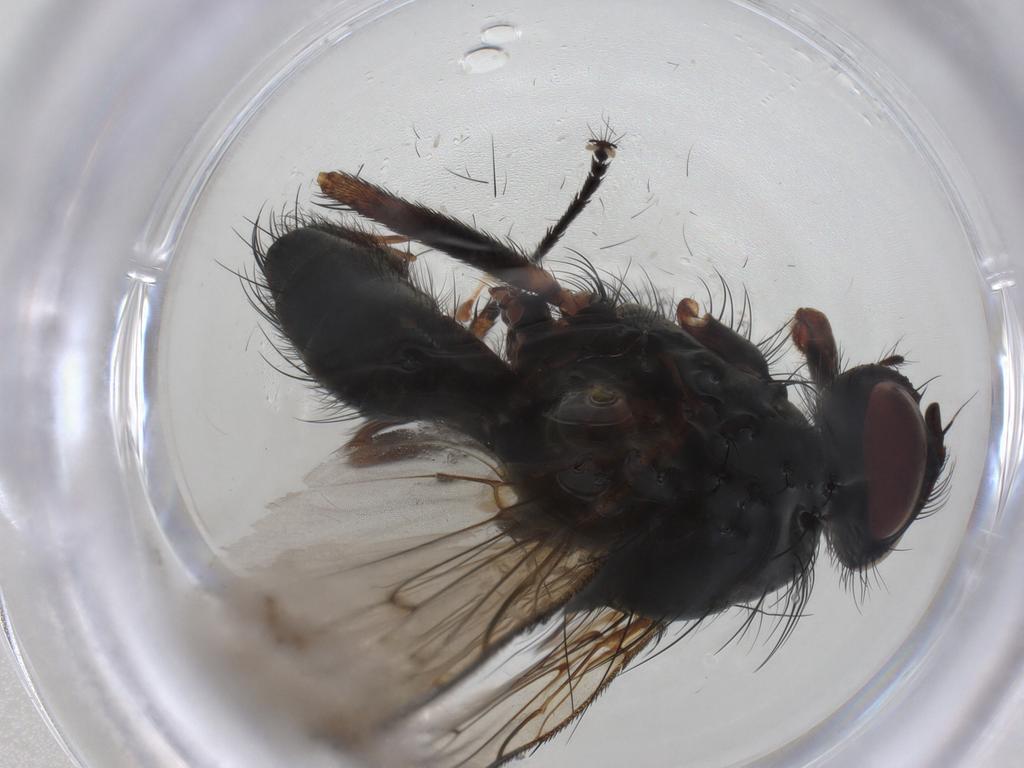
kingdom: Animalia
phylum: Arthropoda
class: Insecta
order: Diptera
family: Anthomyiidae
